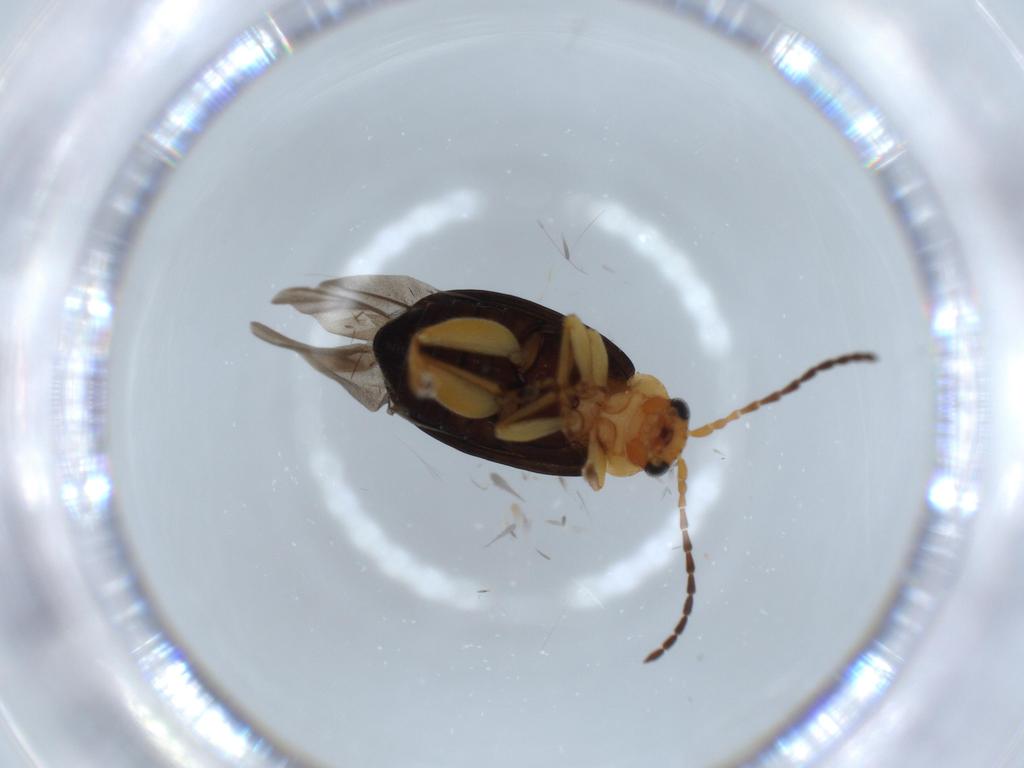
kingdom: Animalia
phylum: Arthropoda
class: Insecta
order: Coleoptera
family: Chrysomelidae
